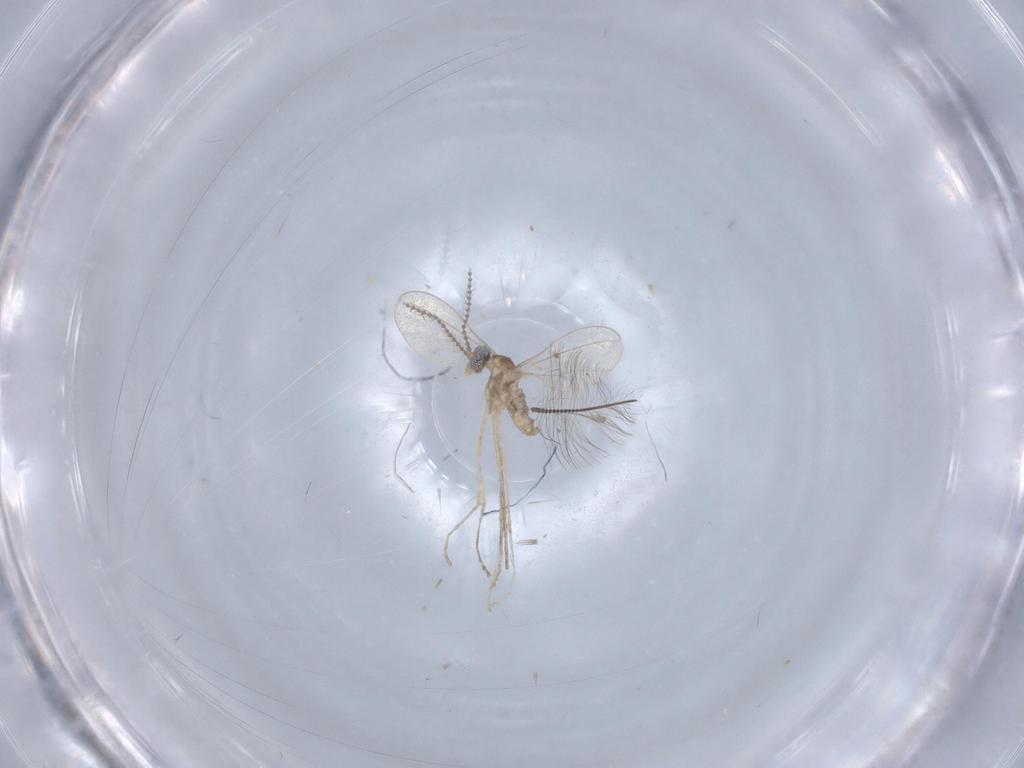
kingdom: Animalia
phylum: Arthropoda
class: Insecta
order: Diptera
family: Cecidomyiidae
